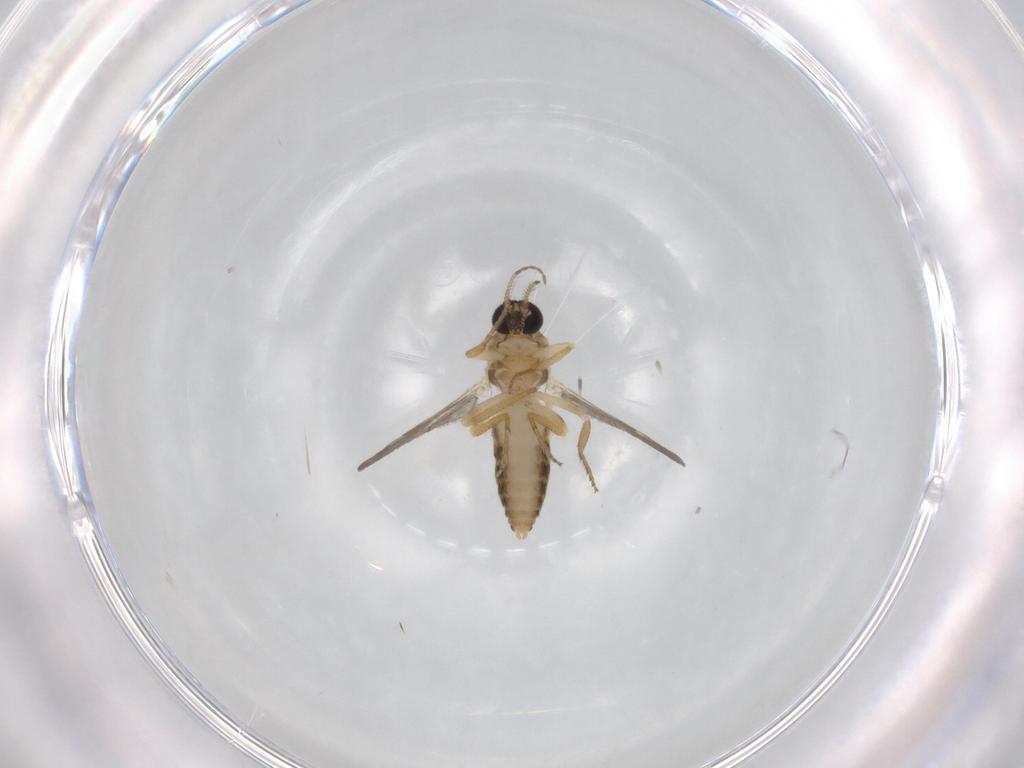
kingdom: Animalia
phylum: Arthropoda
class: Insecta
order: Diptera
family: Ceratopogonidae
